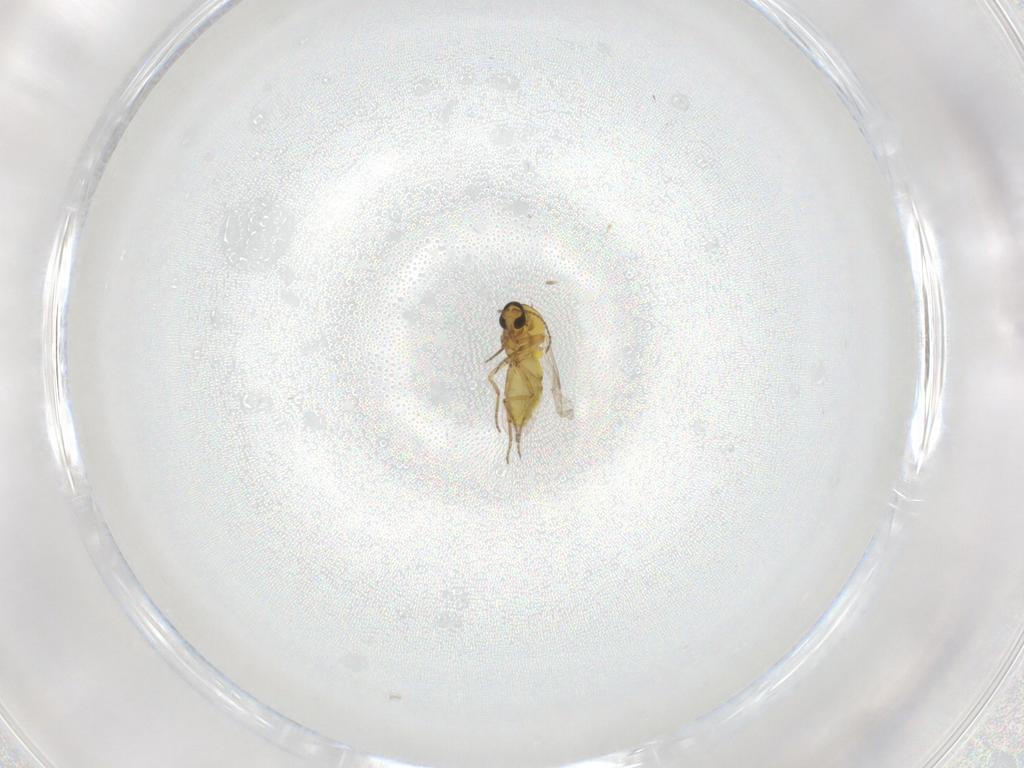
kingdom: Animalia
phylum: Arthropoda
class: Insecta
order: Diptera
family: Ceratopogonidae
